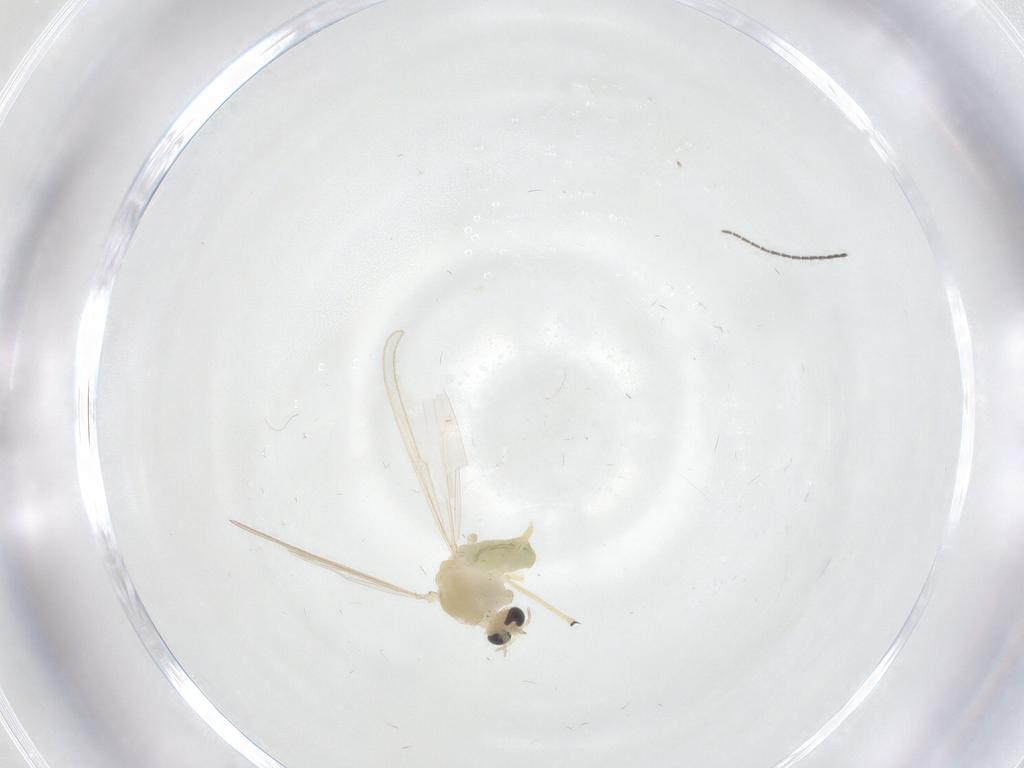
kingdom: Animalia
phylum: Arthropoda
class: Insecta
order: Diptera
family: Chironomidae
